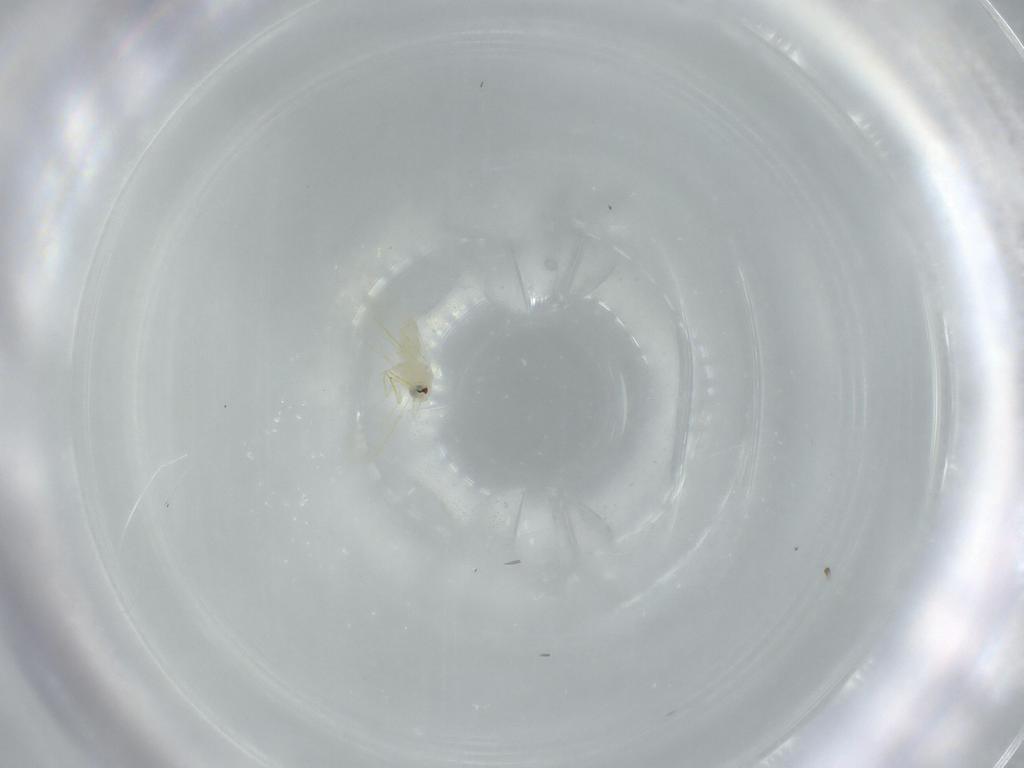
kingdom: Animalia
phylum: Arthropoda
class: Insecta
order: Hemiptera
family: Aleyrodidae
